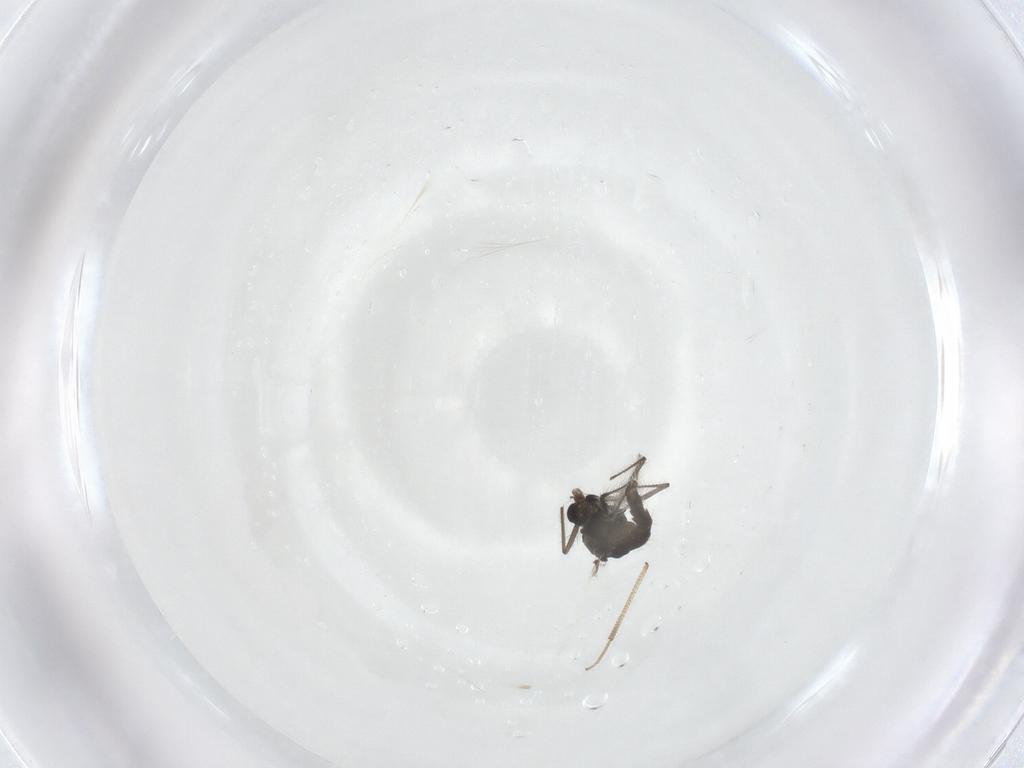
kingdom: Animalia
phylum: Arthropoda
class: Insecta
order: Diptera
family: Chironomidae
